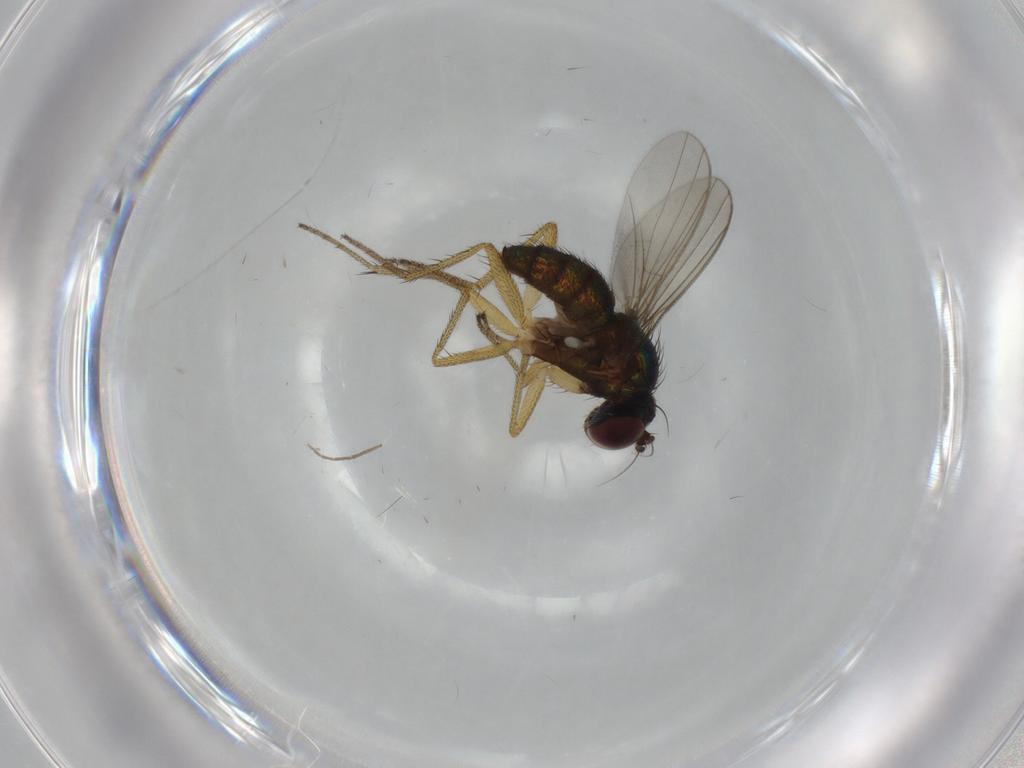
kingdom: Animalia
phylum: Arthropoda
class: Insecta
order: Diptera
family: Dolichopodidae
